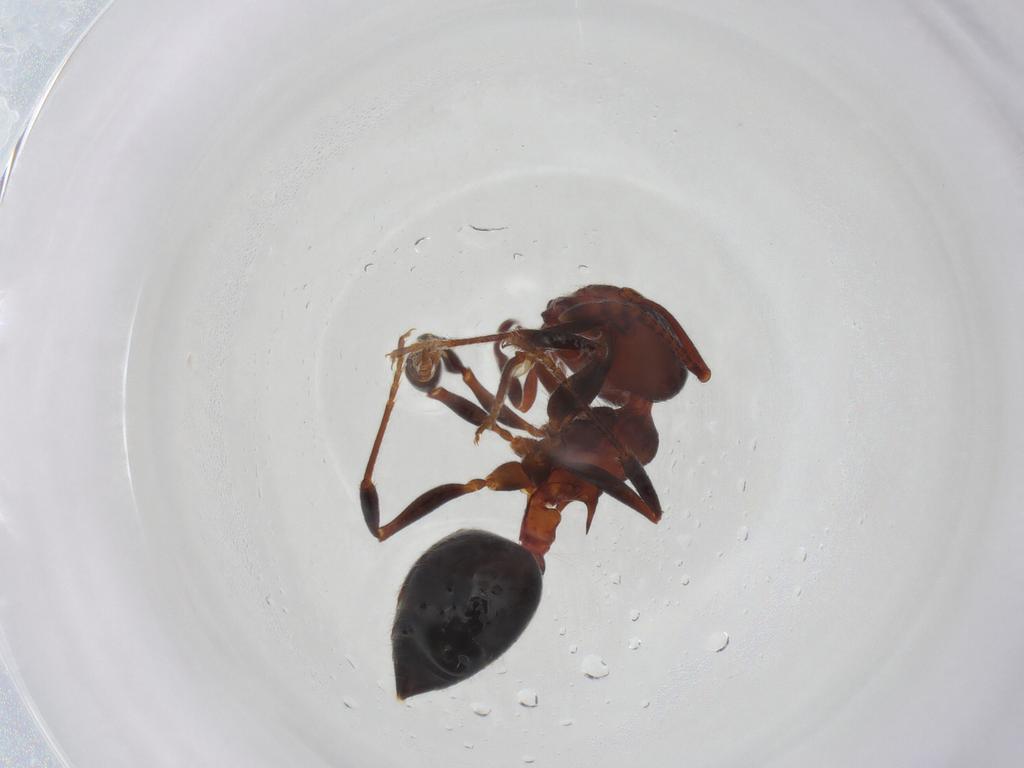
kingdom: Animalia
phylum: Arthropoda
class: Insecta
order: Hymenoptera
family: Formicidae
